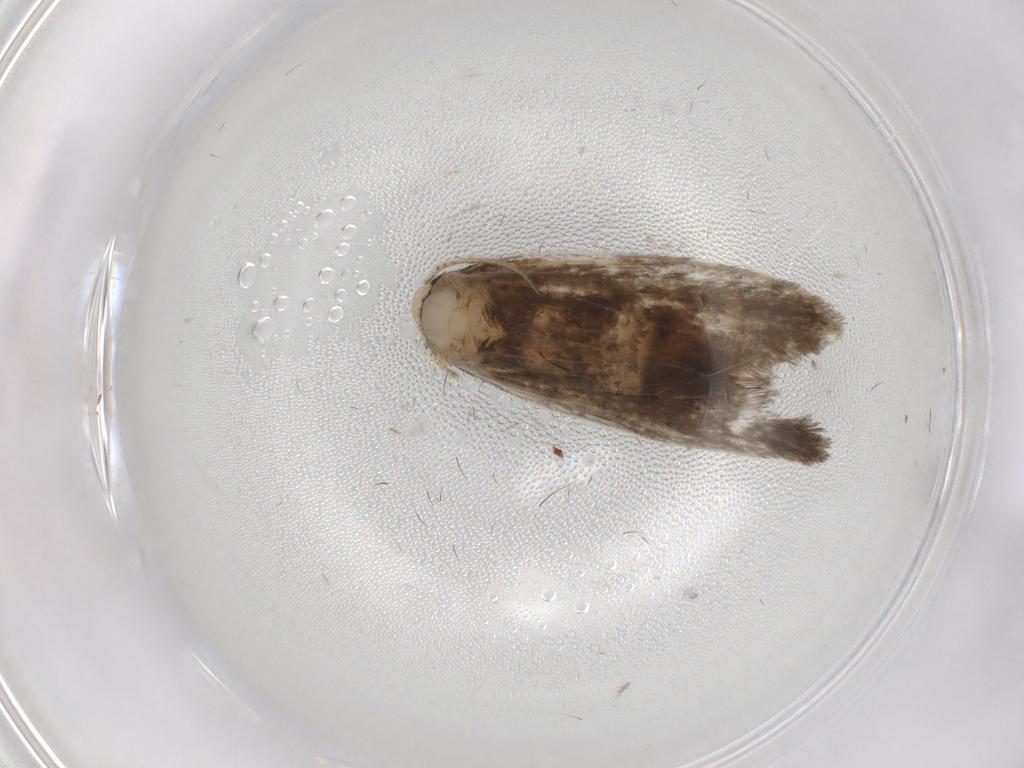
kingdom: Animalia
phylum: Arthropoda
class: Insecta
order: Lepidoptera
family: Psychidae
